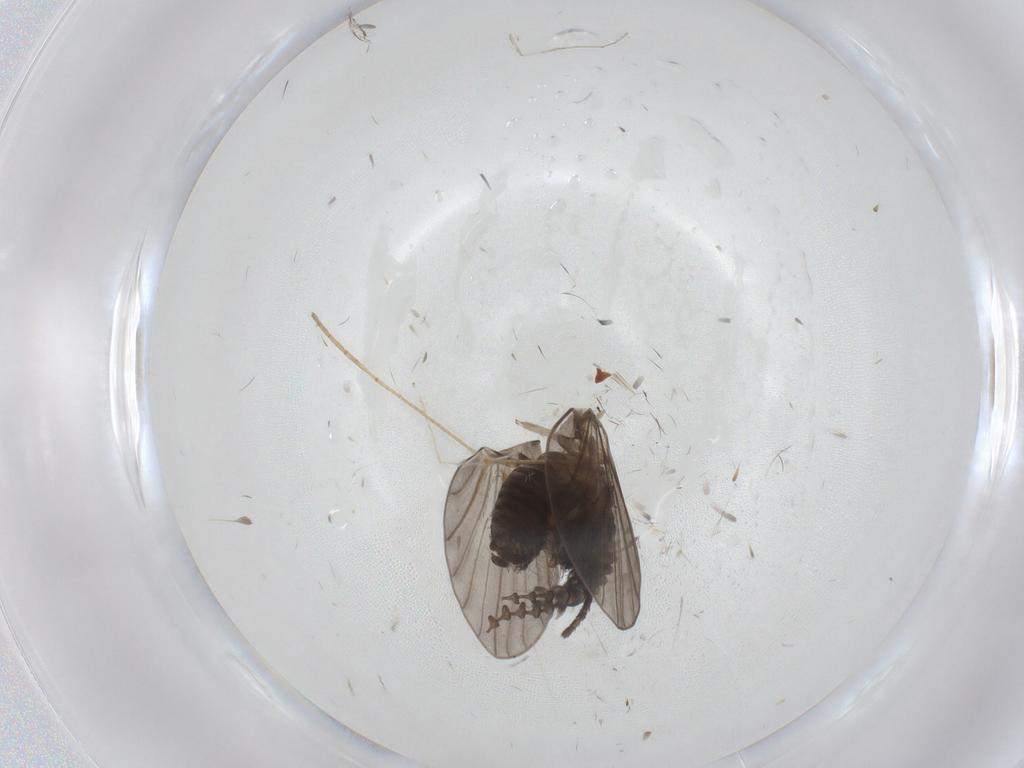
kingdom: Animalia
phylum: Arthropoda
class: Insecta
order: Diptera
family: Psychodidae
